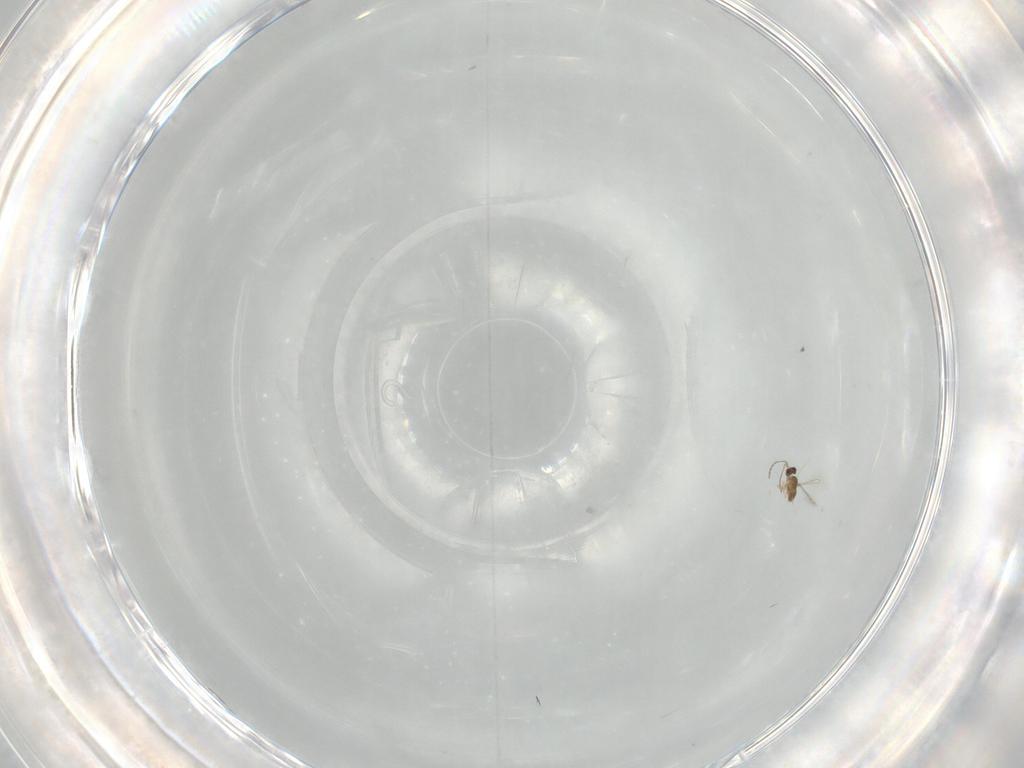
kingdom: Animalia
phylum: Arthropoda
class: Insecta
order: Hymenoptera
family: Mymaridae
